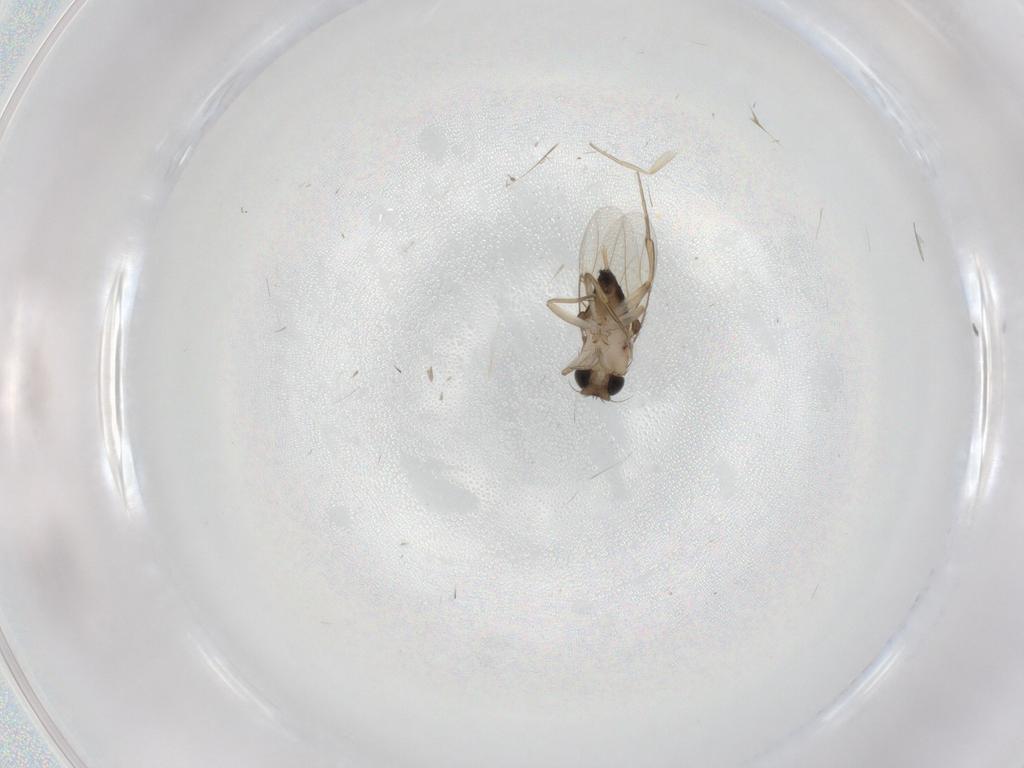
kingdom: Animalia
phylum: Arthropoda
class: Insecta
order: Diptera
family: Phoridae
